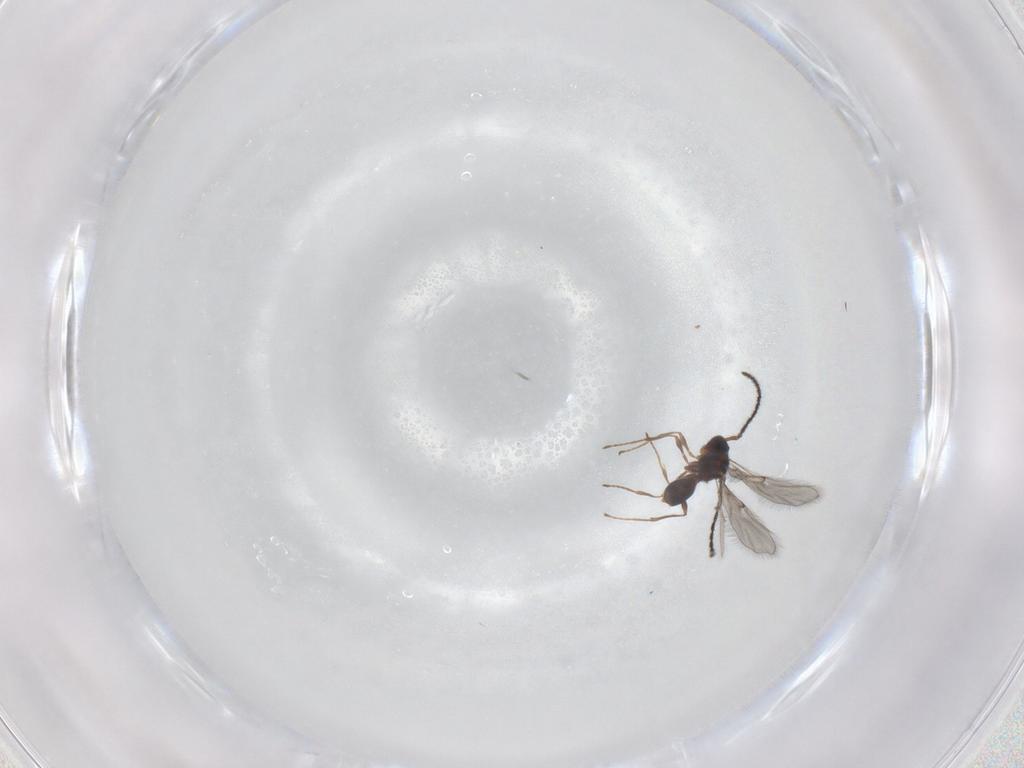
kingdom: Animalia
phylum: Arthropoda
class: Insecta
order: Hymenoptera
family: Diapriidae
